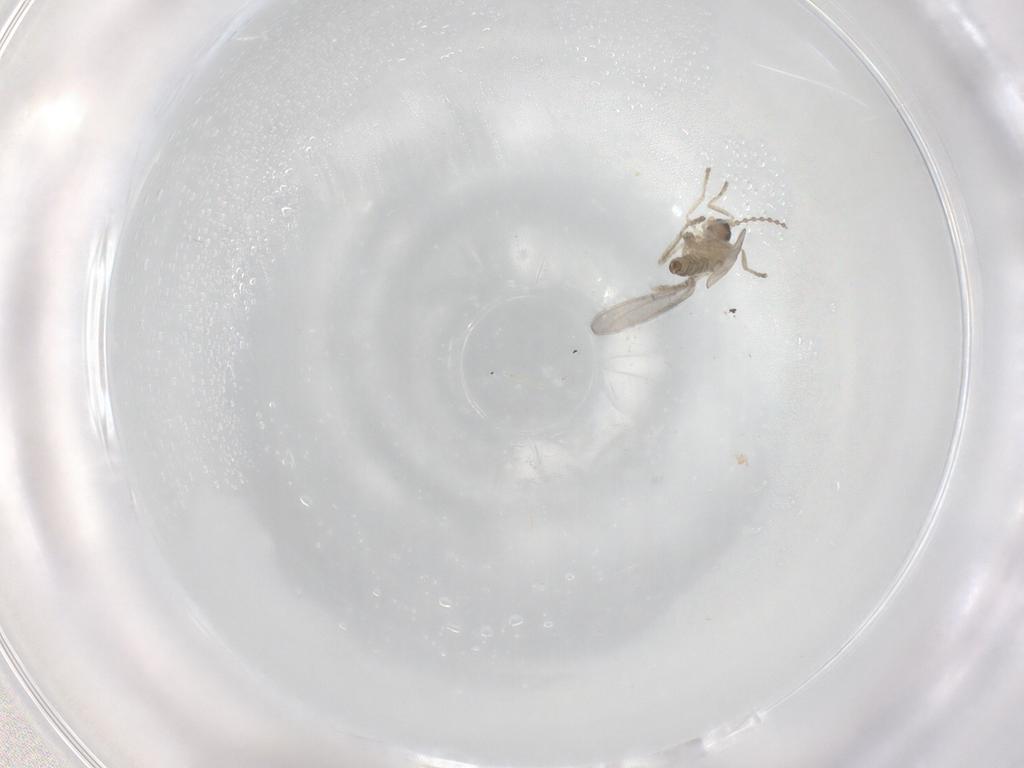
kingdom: Animalia
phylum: Arthropoda
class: Insecta
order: Diptera
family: Cecidomyiidae
